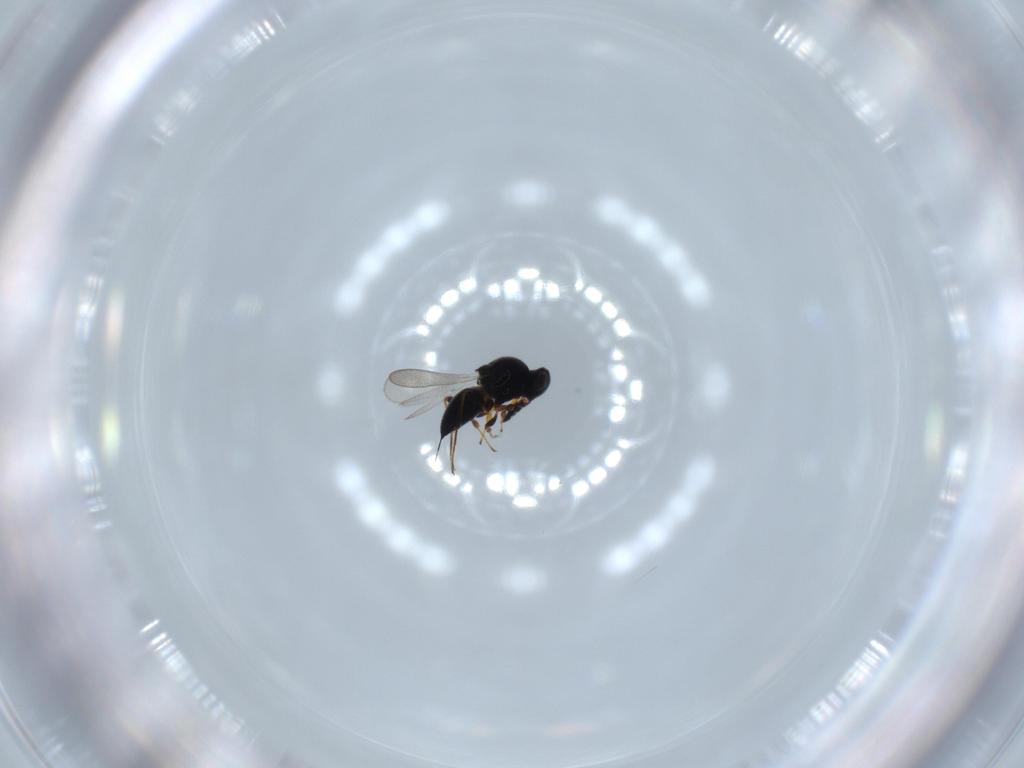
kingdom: Animalia
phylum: Arthropoda
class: Insecta
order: Hymenoptera
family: Platygastridae
